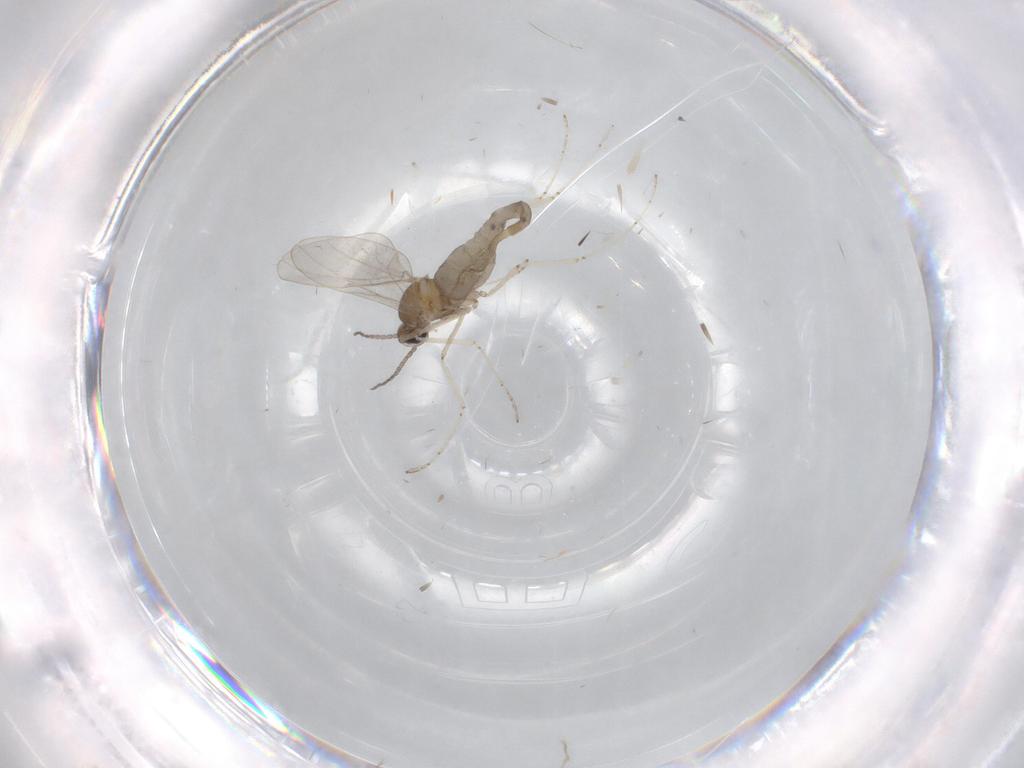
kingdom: Animalia
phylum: Arthropoda
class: Insecta
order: Diptera
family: Cecidomyiidae
